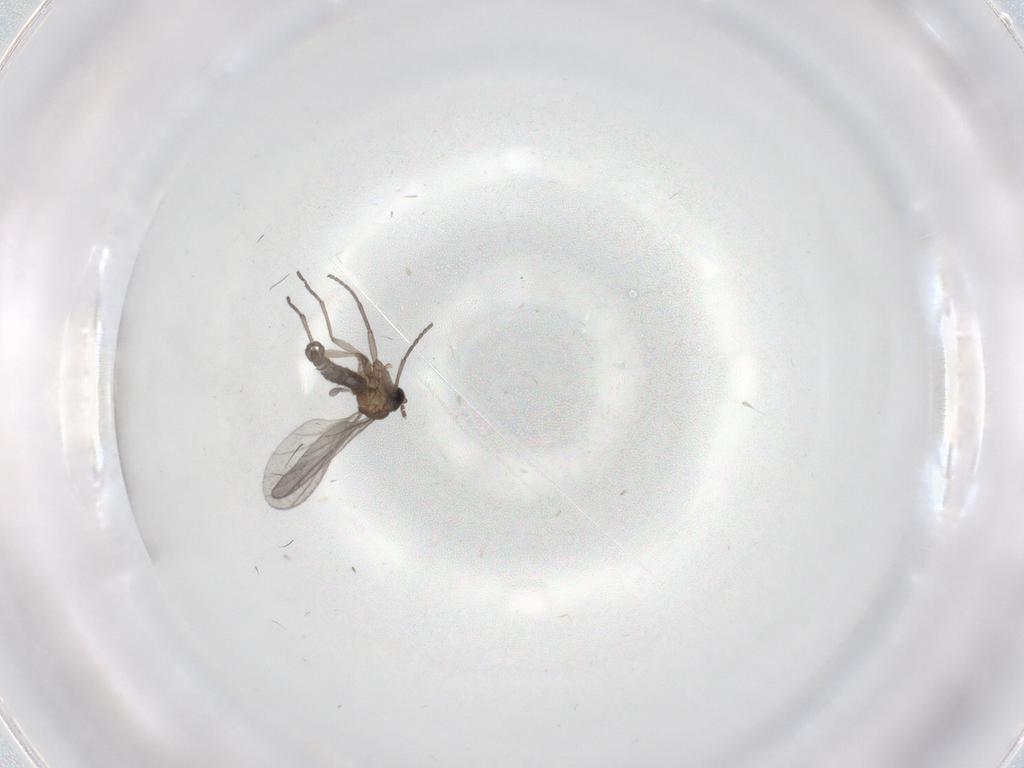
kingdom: Animalia
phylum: Arthropoda
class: Insecta
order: Diptera
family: Sciaridae
